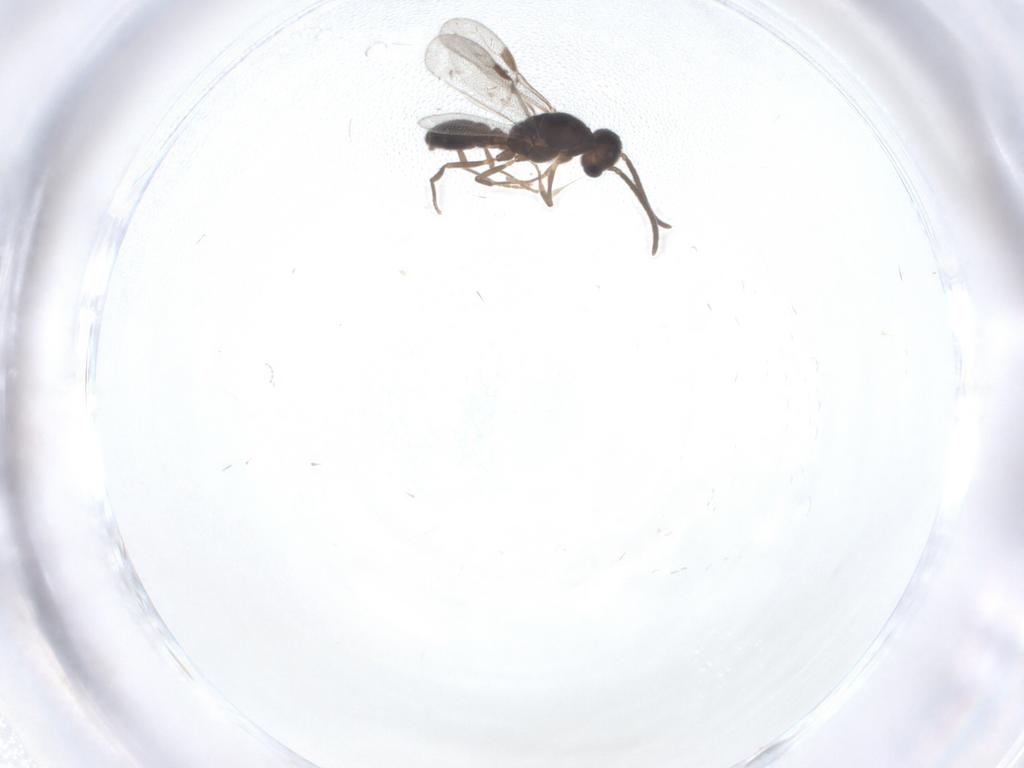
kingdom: Animalia
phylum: Arthropoda
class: Insecta
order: Hymenoptera
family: Formicidae
